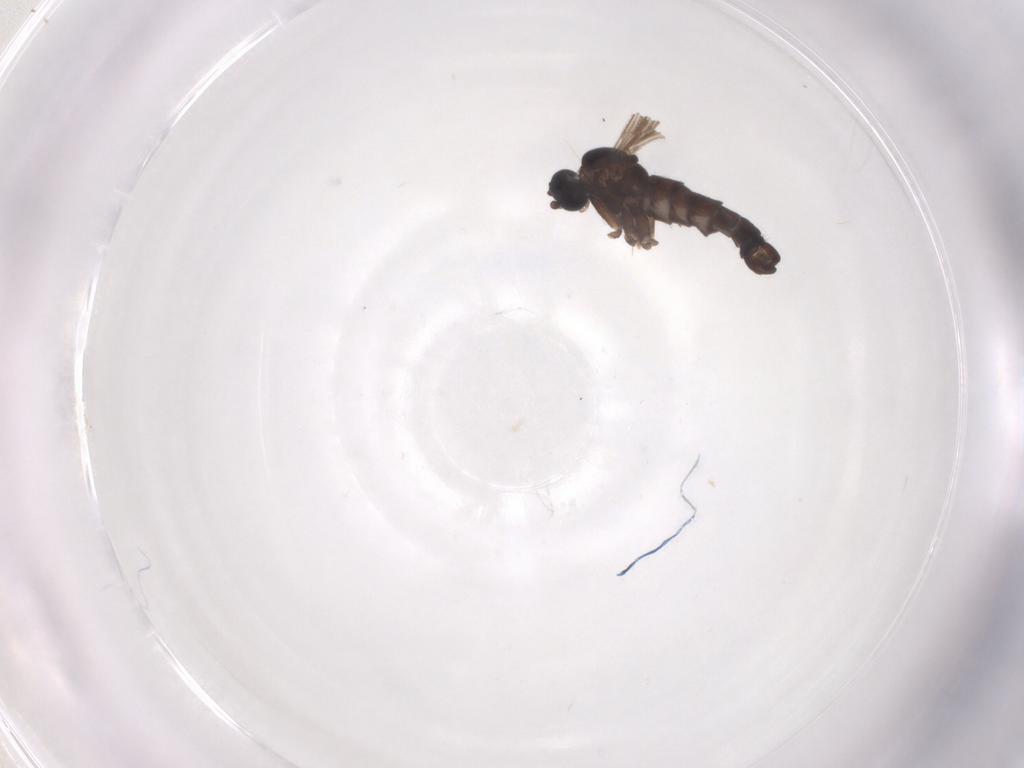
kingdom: Animalia
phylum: Arthropoda
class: Insecta
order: Diptera
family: Sciaridae
